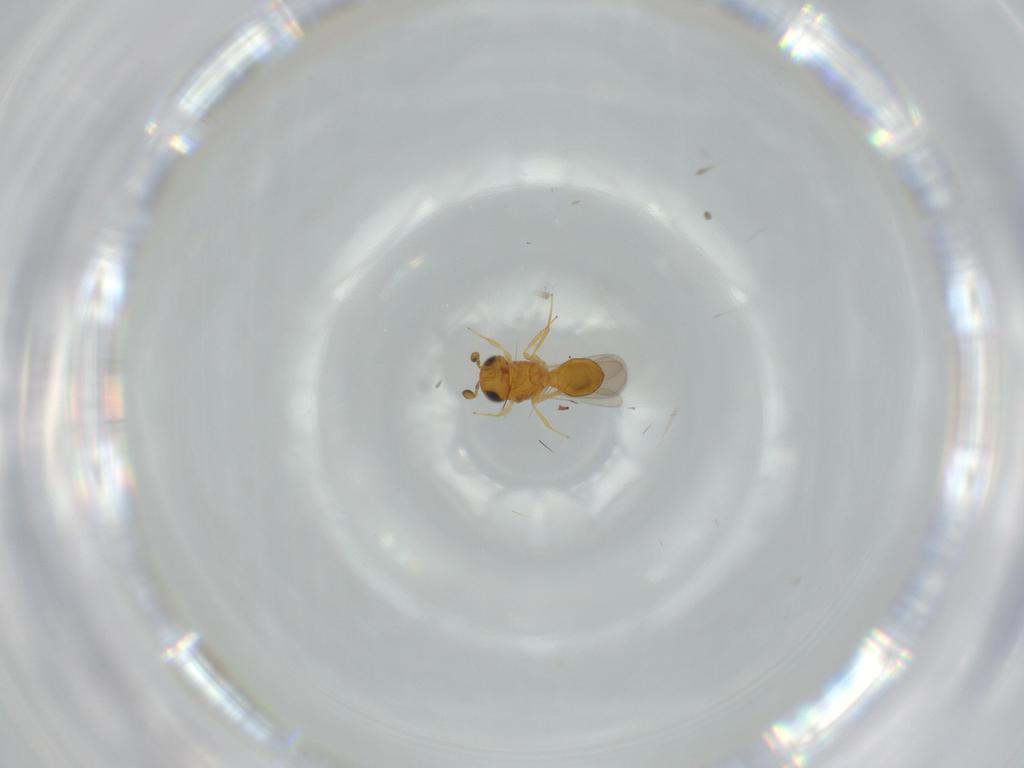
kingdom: Animalia
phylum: Arthropoda
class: Insecta
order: Hymenoptera
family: Scelionidae
